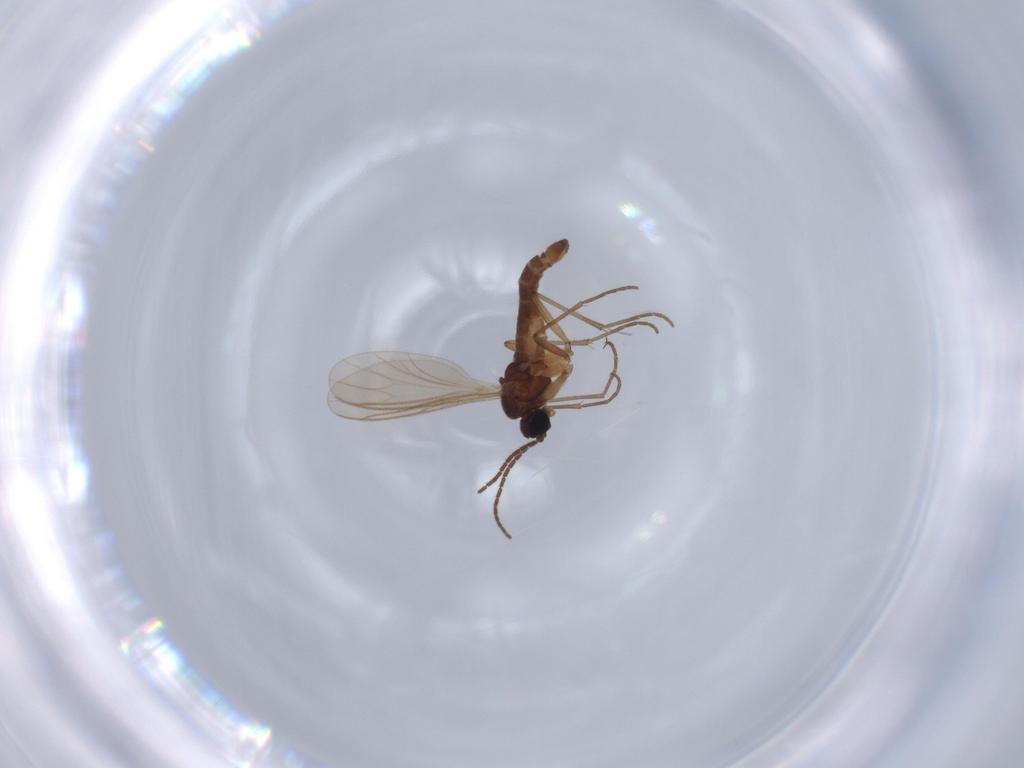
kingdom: Animalia
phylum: Arthropoda
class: Insecta
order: Diptera
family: Sciaridae
